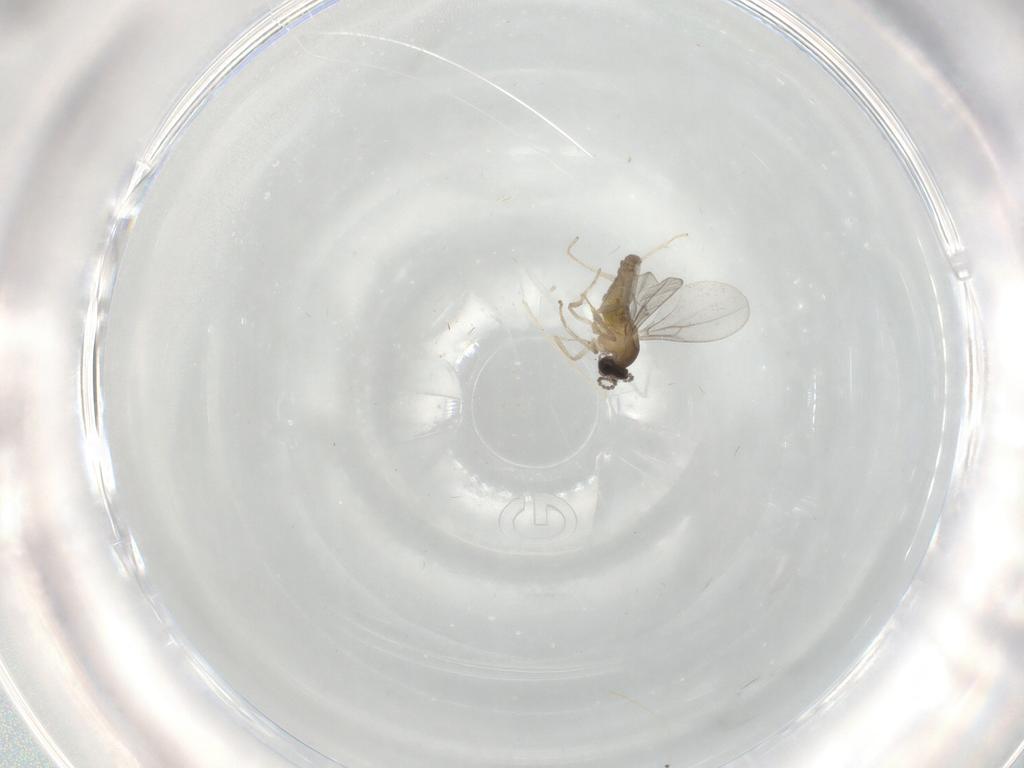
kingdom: Animalia
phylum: Arthropoda
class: Insecta
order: Diptera
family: Cecidomyiidae
